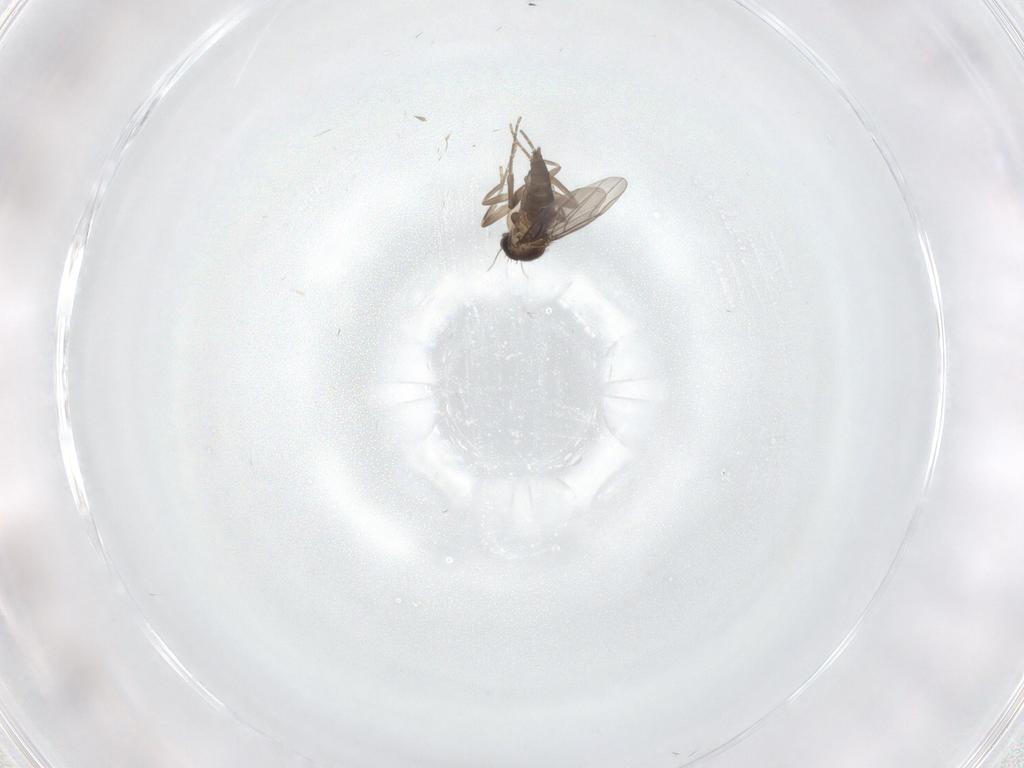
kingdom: Animalia
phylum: Arthropoda
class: Insecta
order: Diptera
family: Phoridae
